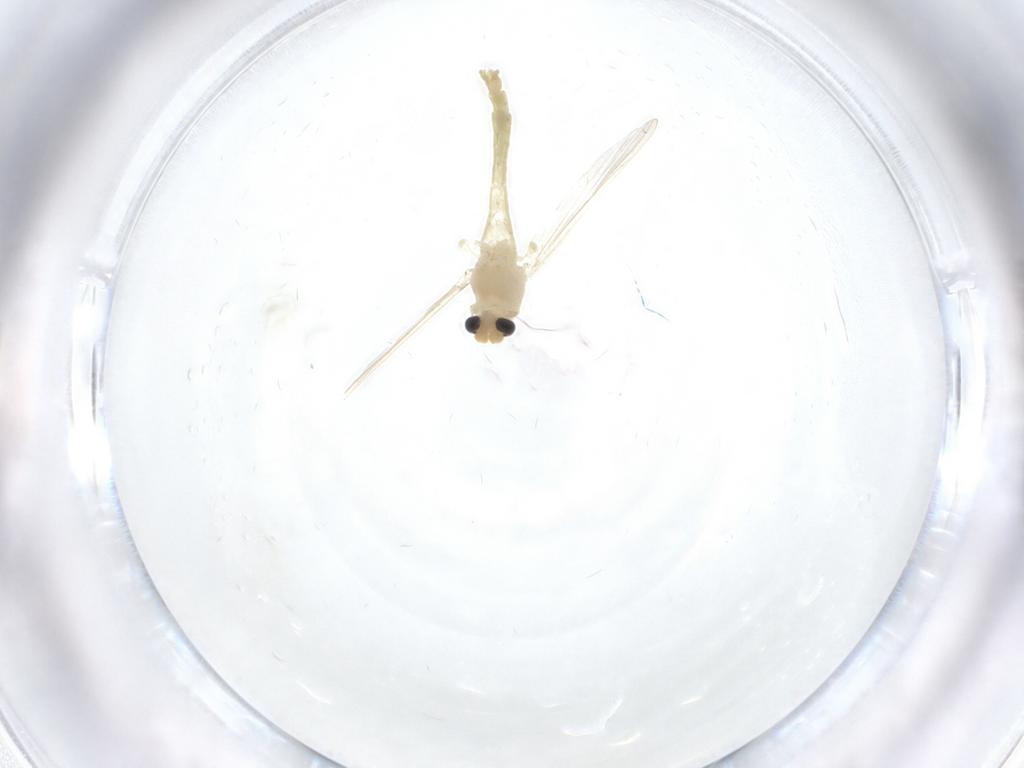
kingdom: Animalia
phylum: Arthropoda
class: Insecta
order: Diptera
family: Chironomidae
